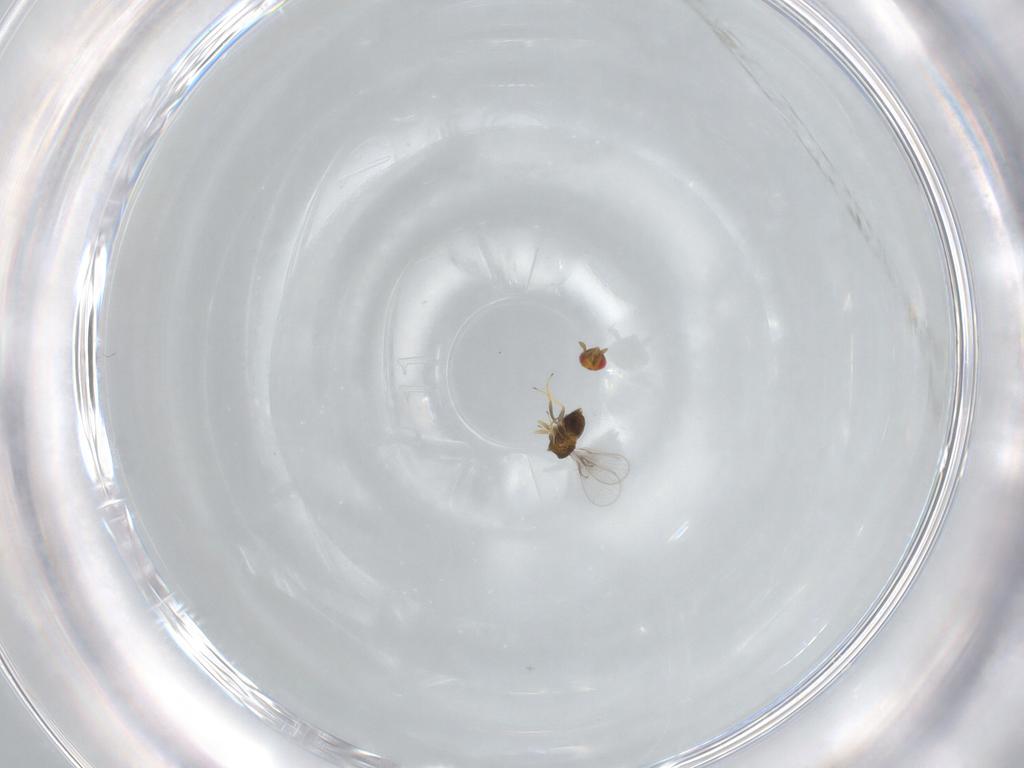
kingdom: Animalia
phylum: Arthropoda
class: Insecta
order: Hymenoptera
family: Trichogrammatidae
